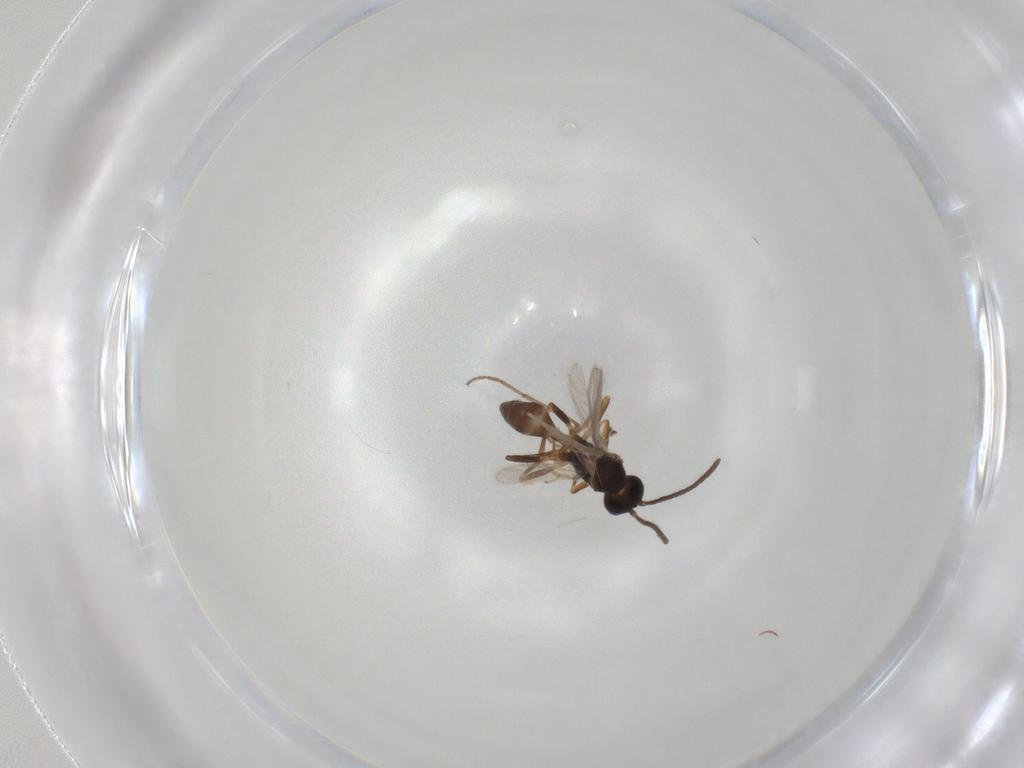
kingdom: Animalia
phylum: Arthropoda
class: Insecta
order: Hymenoptera
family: Braconidae
